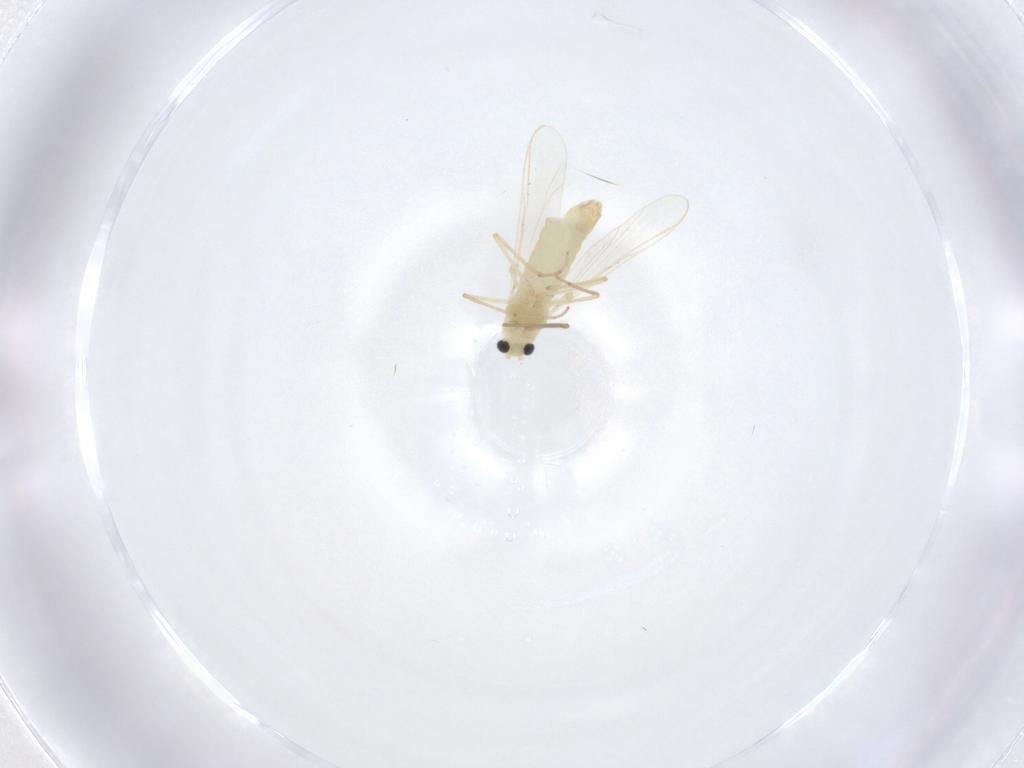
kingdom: Animalia
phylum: Arthropoda
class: Insecta
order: Diptera
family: Chironomidae
